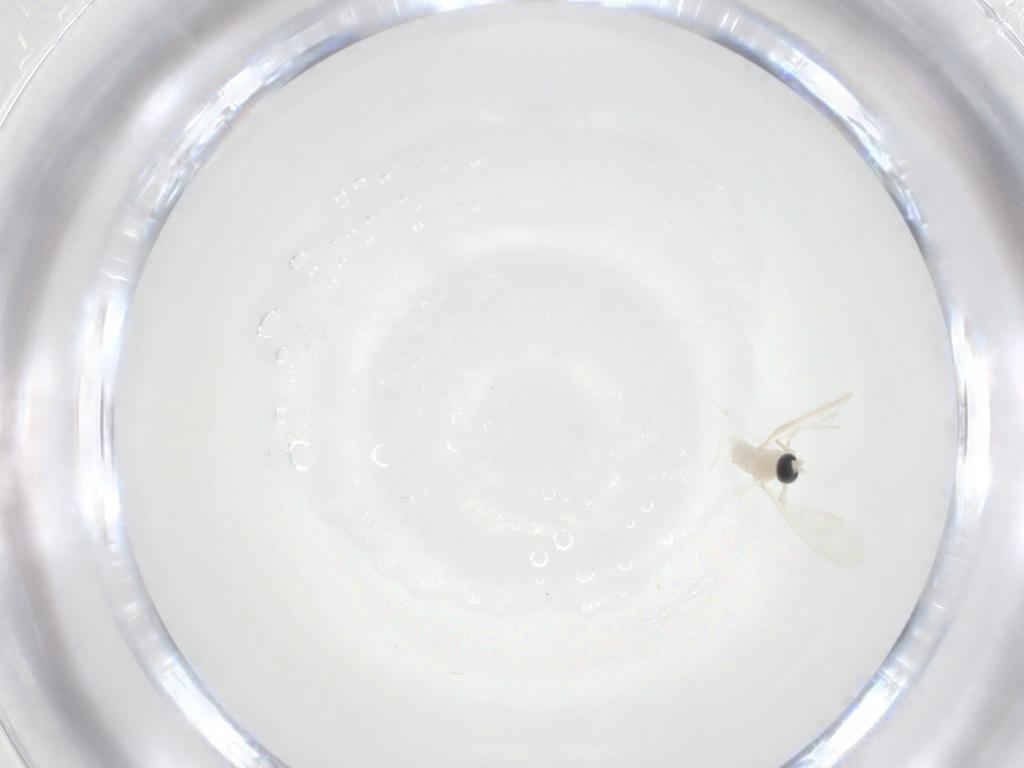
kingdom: Animalia
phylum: Arthropoda
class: Insecta
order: Diptera
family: Cecidomyiidae
